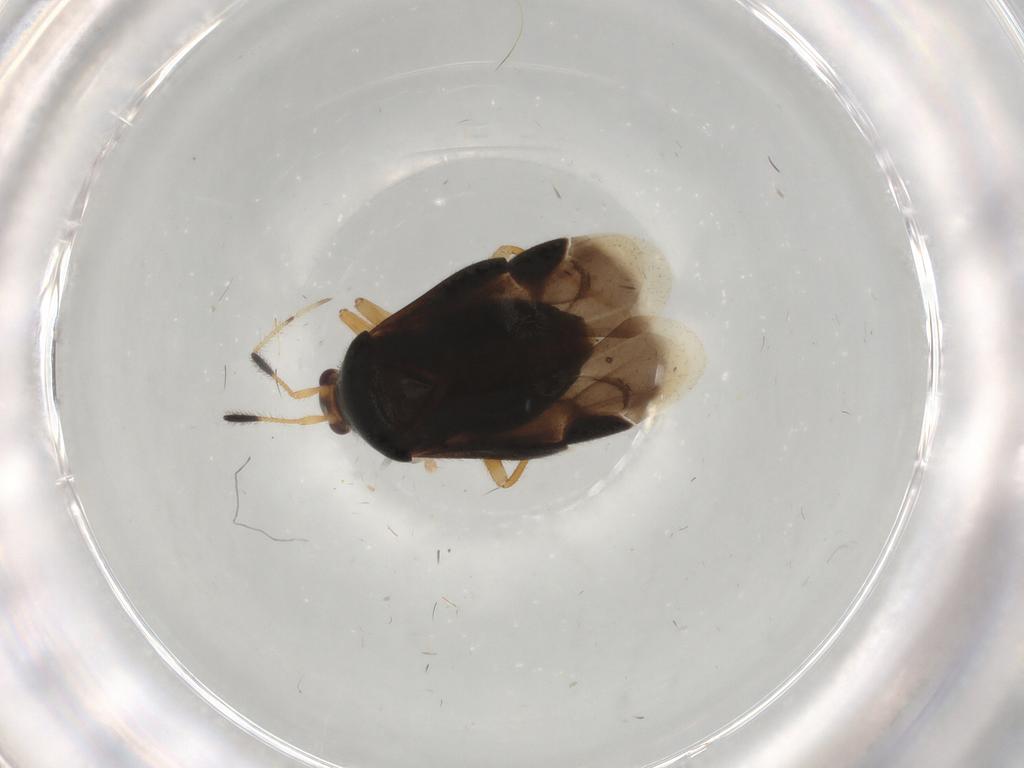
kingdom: Animalia
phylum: Arthropoda
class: Insecta
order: Hemiptera
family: Miridae
